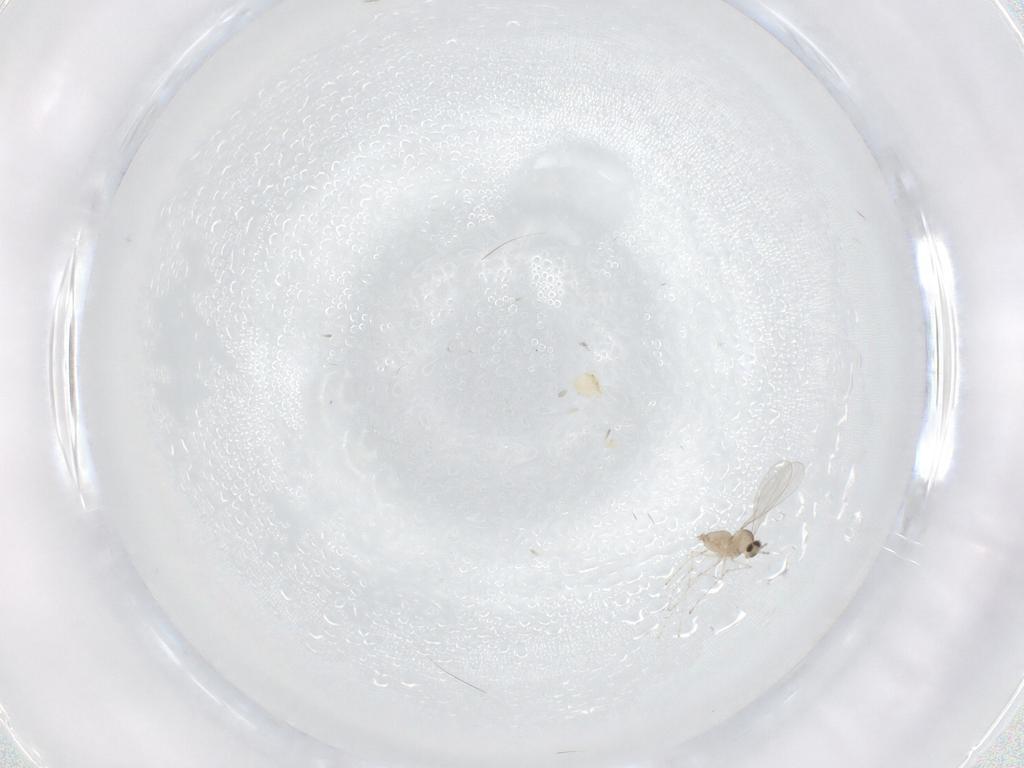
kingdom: Animalia
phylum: Arthropoda
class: Insecta
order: Diptera
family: Cecidomyiidae
